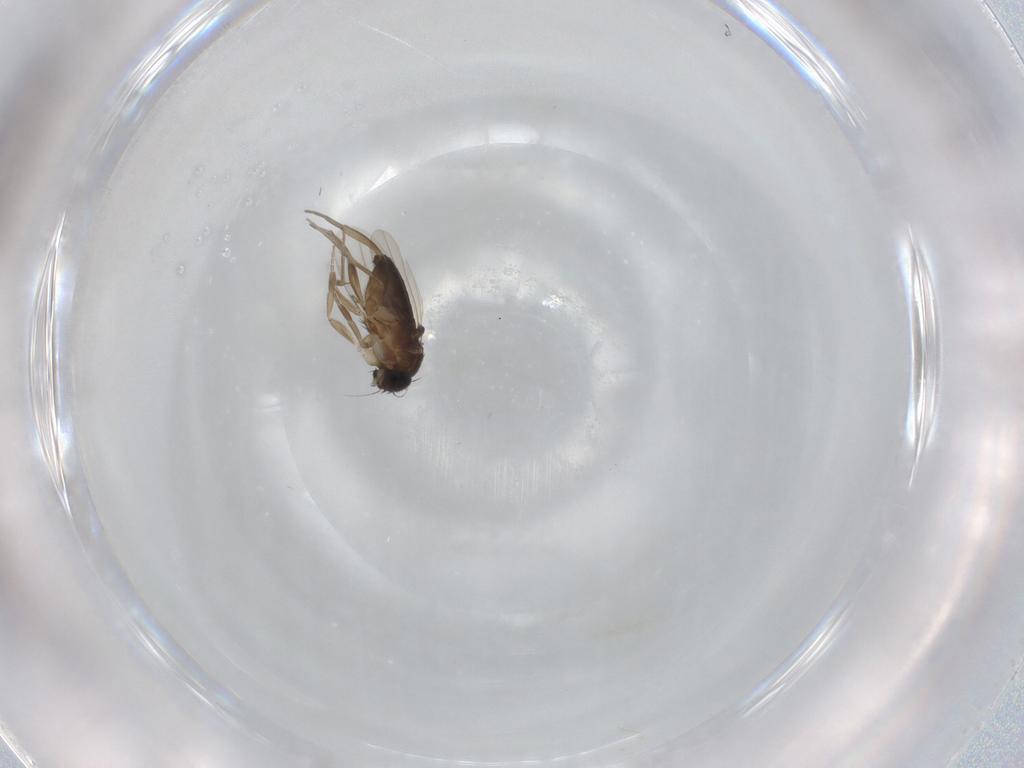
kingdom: Animalia
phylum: Arthropoda
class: Insecta
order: Diptera
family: Phoridae
